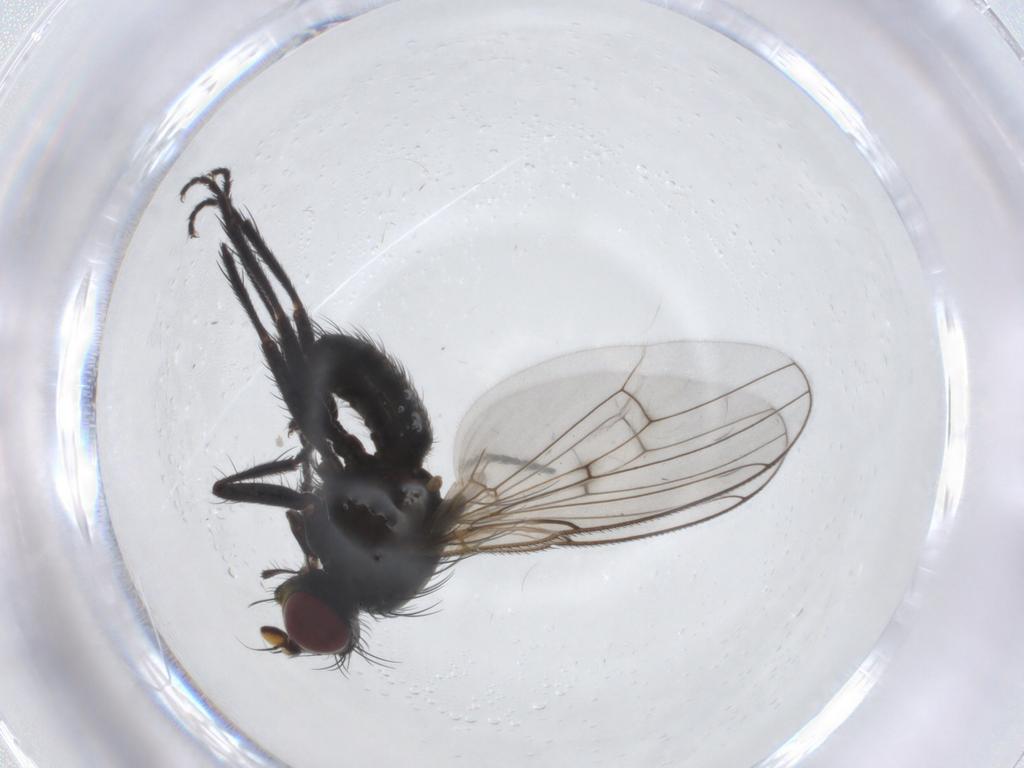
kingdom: Animalia
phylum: Arthropoda
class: Insecta
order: Diptera
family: Muscidae
